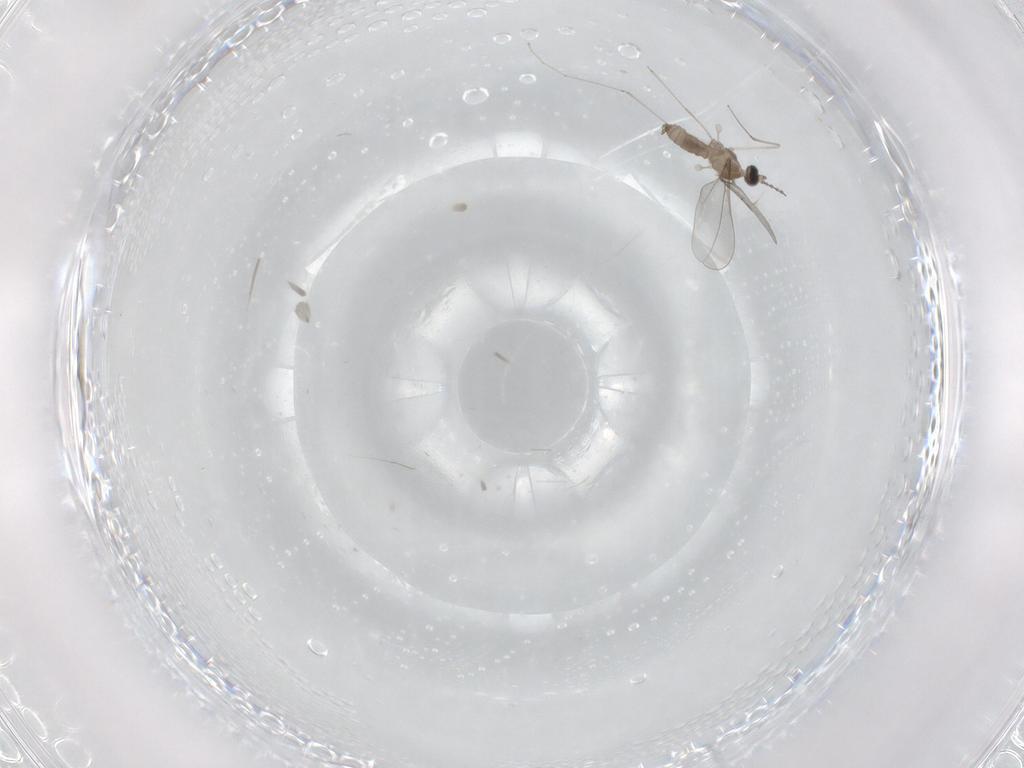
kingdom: Animalia
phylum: Arthropoda
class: Insecta
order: Diptera
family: Cecidomyiidae
